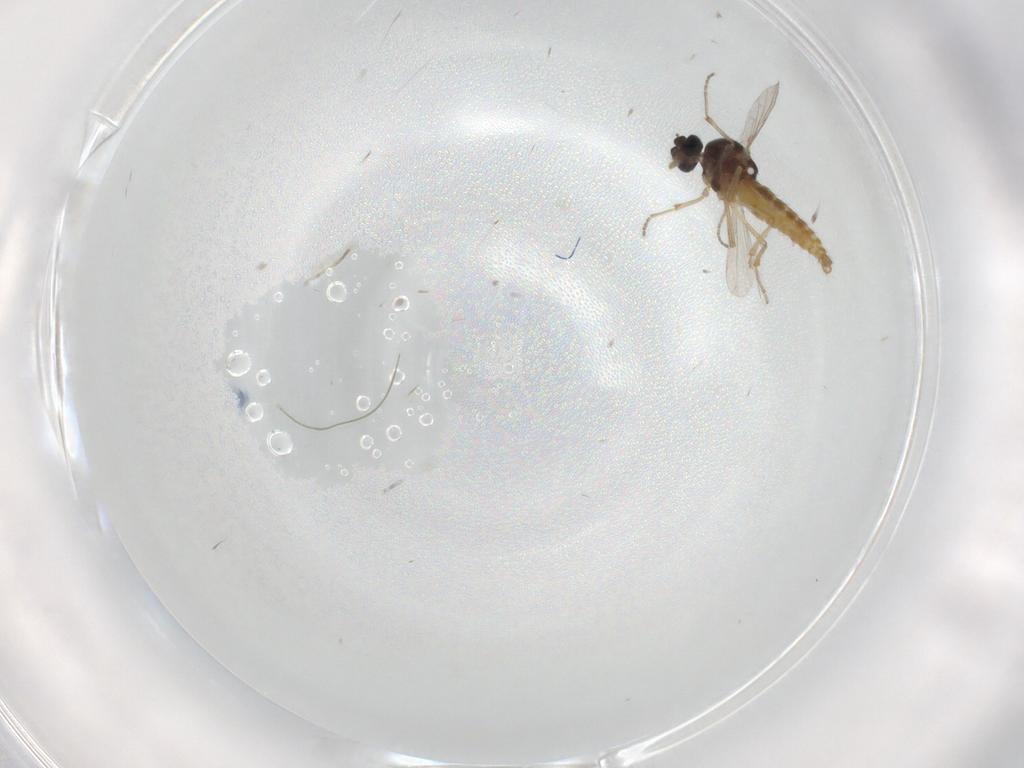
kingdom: Animalia
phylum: Arthropoda
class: Insecta
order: Diptera
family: Ceratopogonidae
